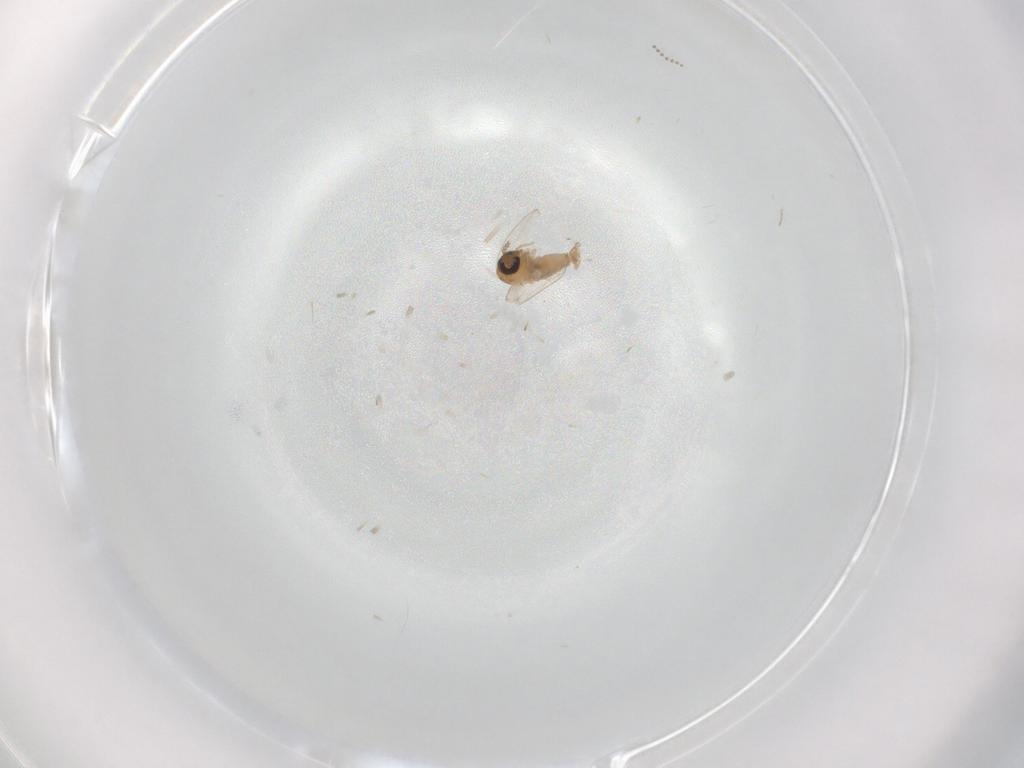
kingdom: Animalia
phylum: Arthropoda
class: Insecta
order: Diptera
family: Psychodidae
